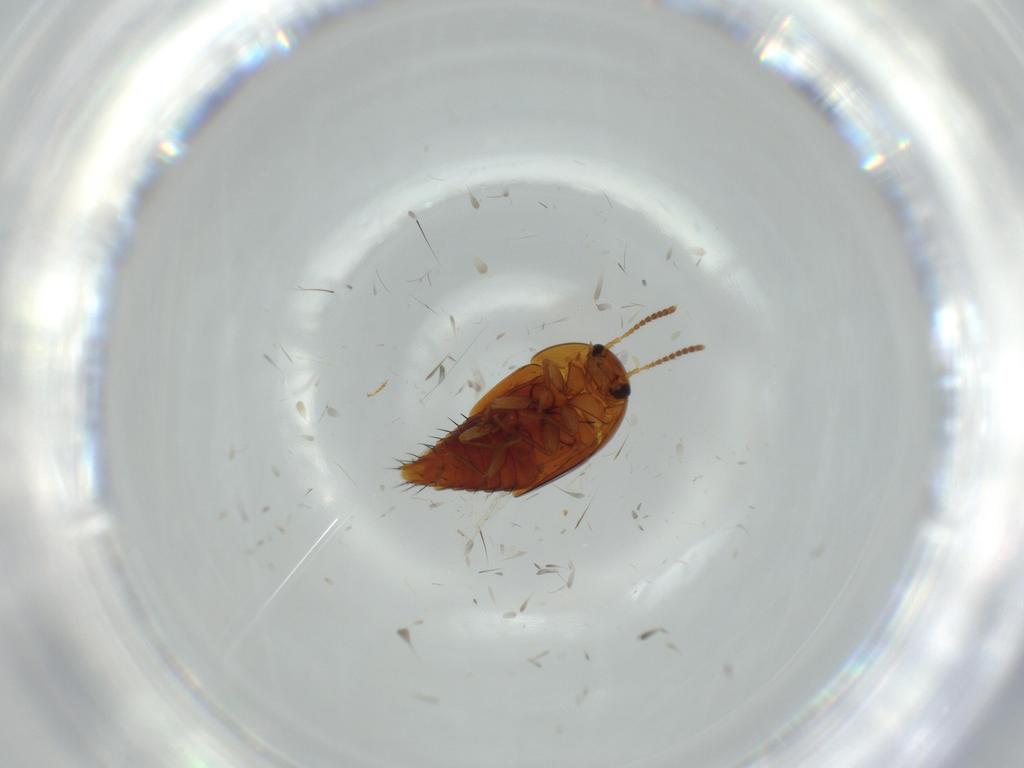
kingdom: Animalia
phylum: Arthropoda
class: Insecta
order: Coleoptera
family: Staphylinidae
